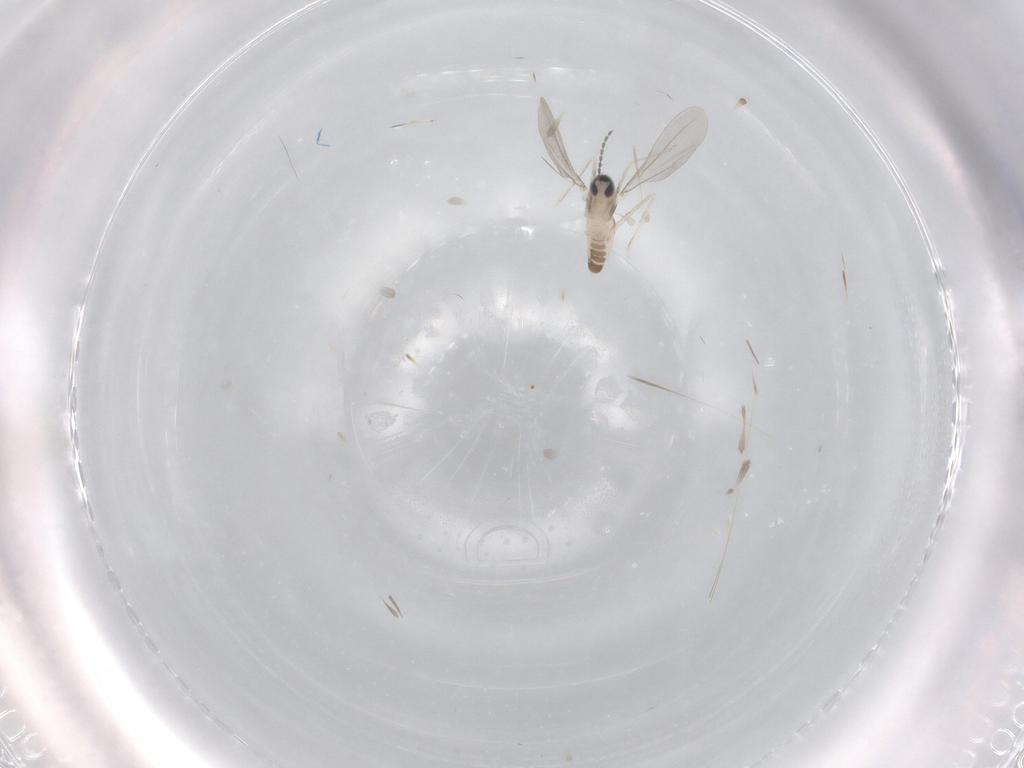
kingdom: Animalia
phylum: Arthropoda
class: Insecta
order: Diptera
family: Cecidomyiidae
